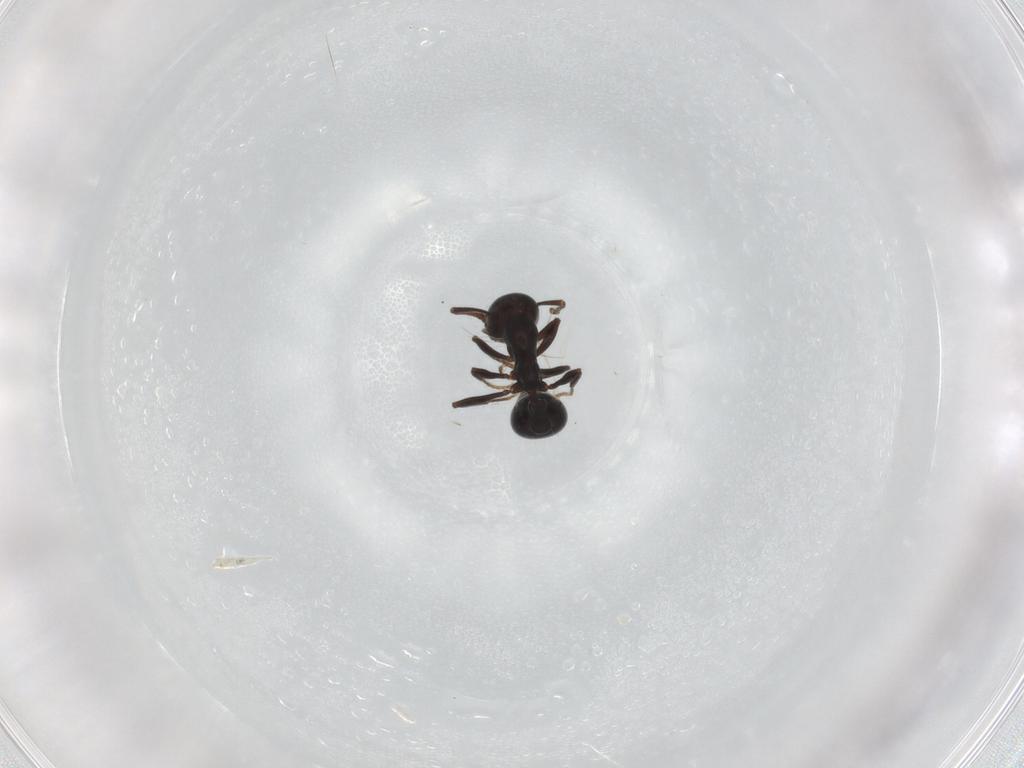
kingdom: Animalia
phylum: Arthropoda
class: Insecta
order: Hymenoptera
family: Formicidae
